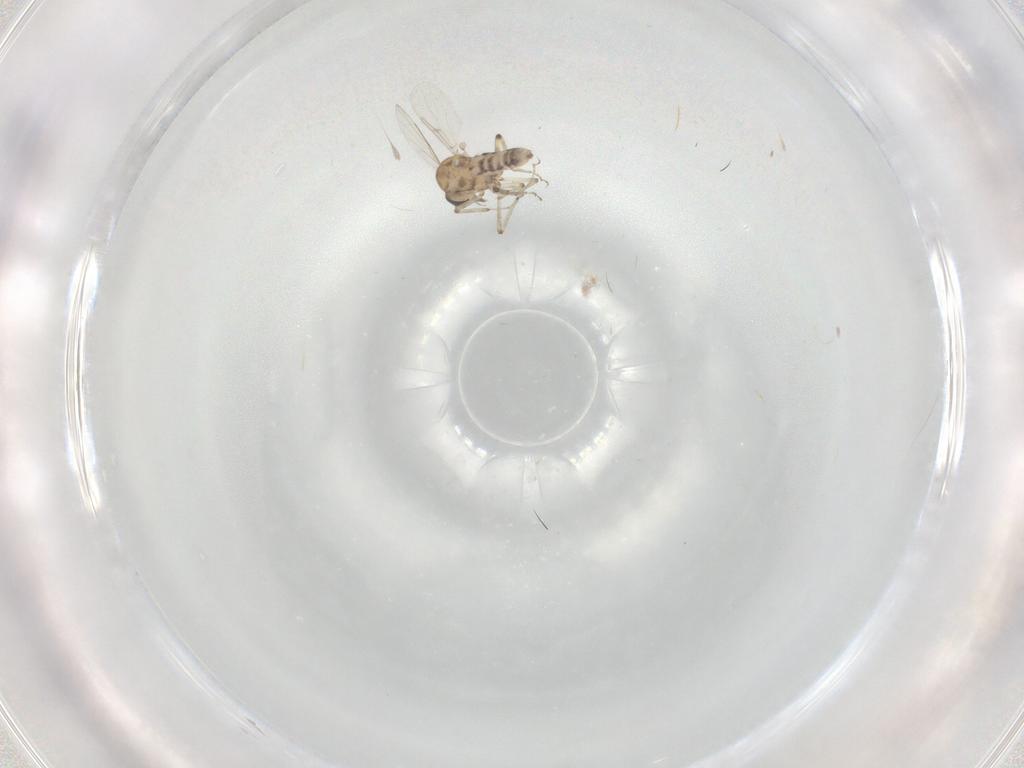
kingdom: Animalia
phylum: Arthropoda
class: Insecta
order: Diptera
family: Ceratopogonidae
